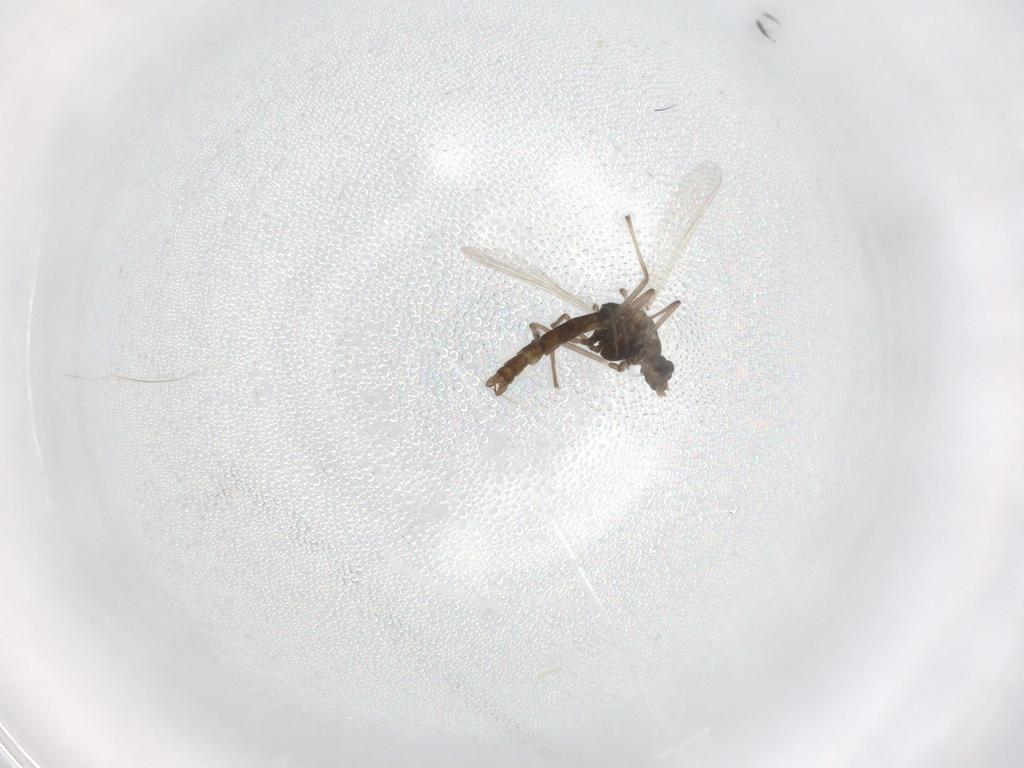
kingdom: Animalia
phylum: Arthropoda
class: Insecta
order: Diptera
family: Chironomidae
